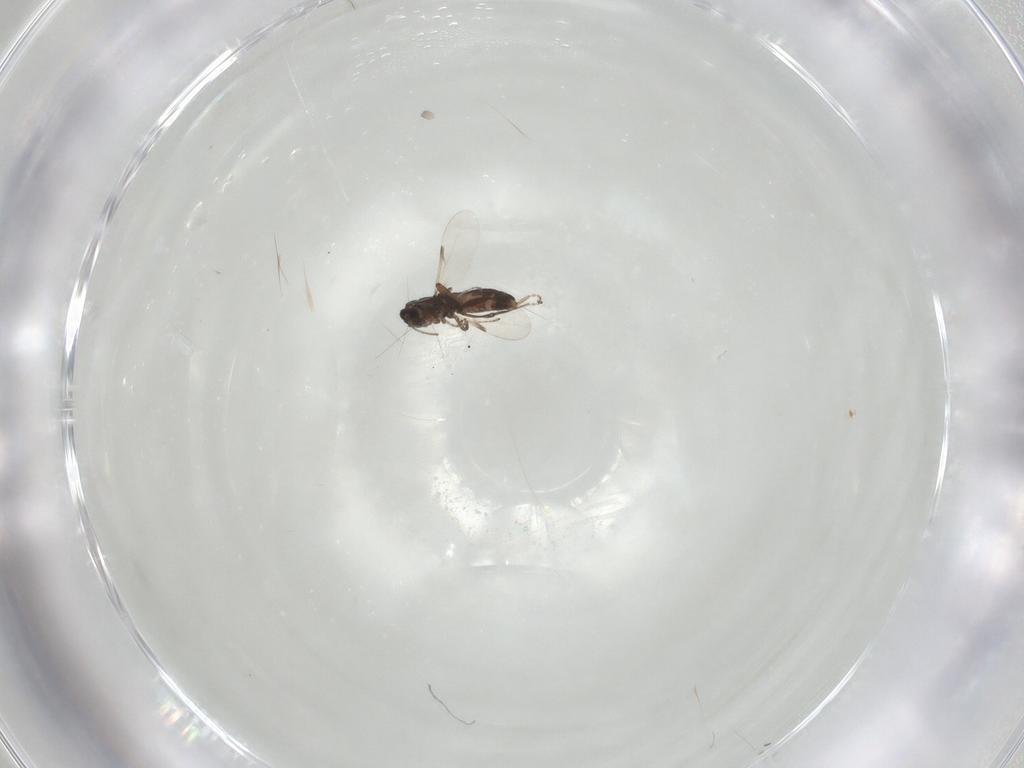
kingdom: Animalia
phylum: Arthropoda
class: Insecta
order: Diptera
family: Ceratopogonidae
